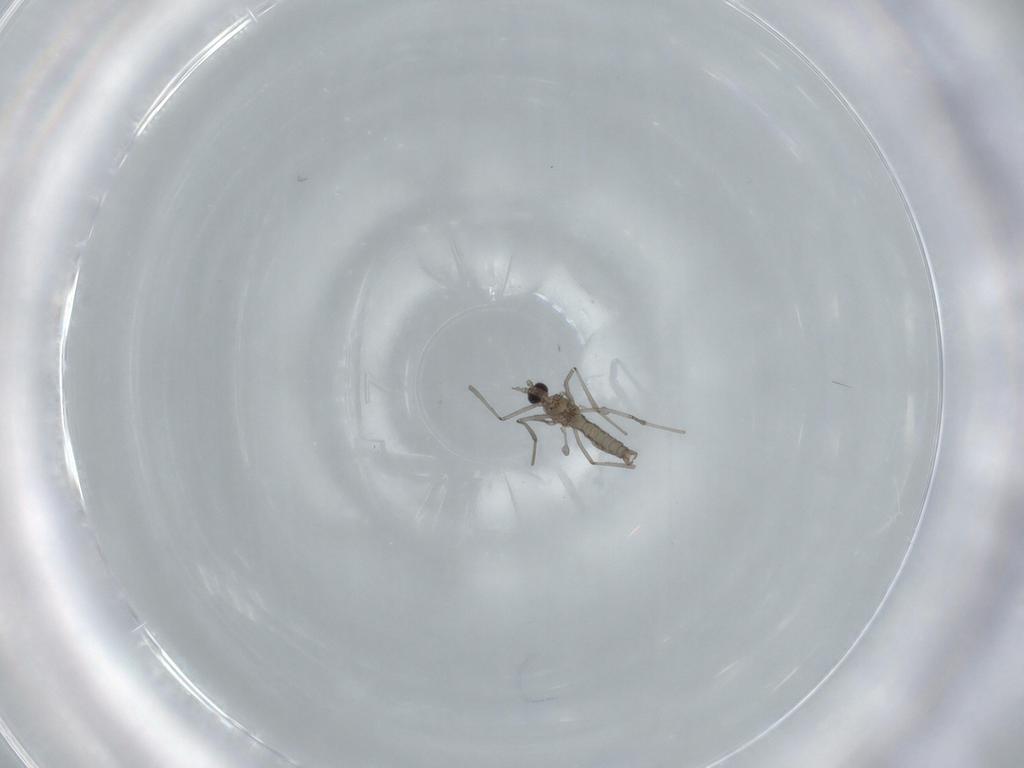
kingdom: Animalia
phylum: Arthropoda
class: Insecta
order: Diptera
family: Cecidomyiidae
